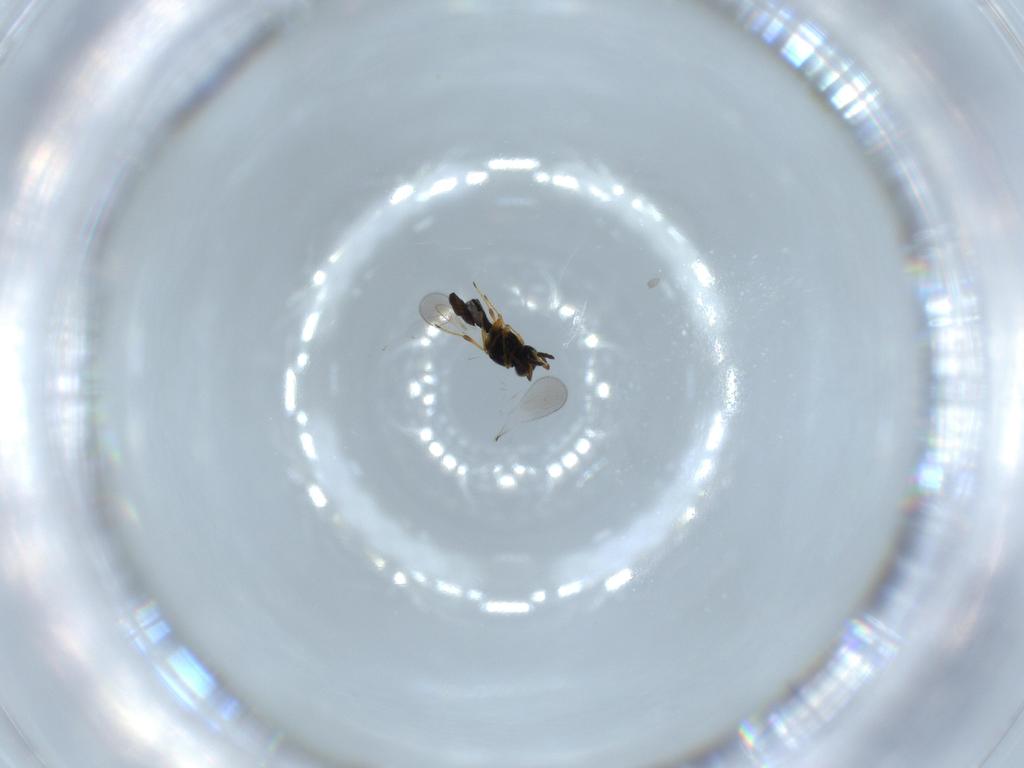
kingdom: Animalia
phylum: Arthropoda
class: Insecta
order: Hymenoptera
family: Platygastridae
